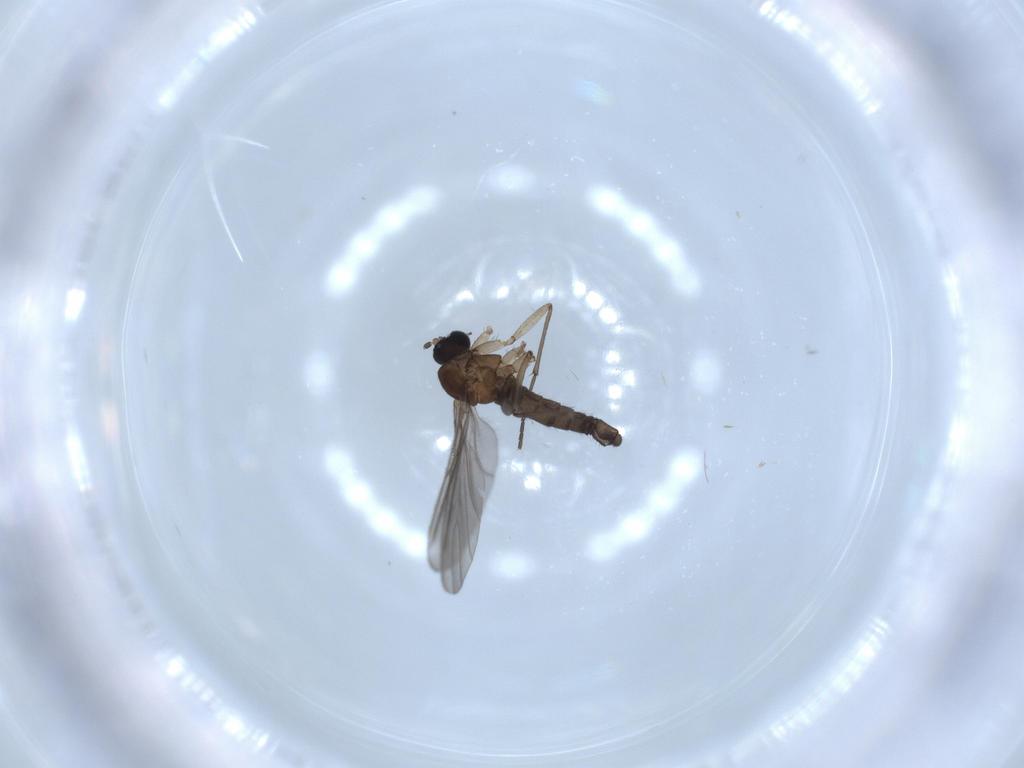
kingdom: Animalia
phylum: Arthropoda
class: Insecta
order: Diptera
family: Sciaridae
